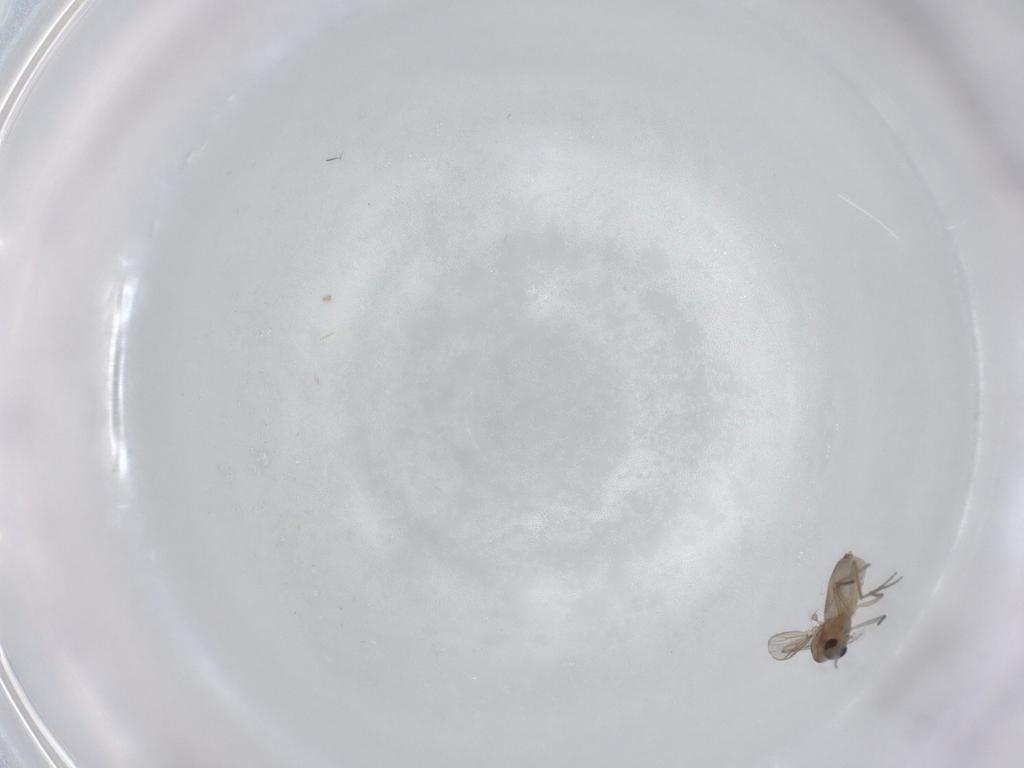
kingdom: Animalia
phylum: Arthropoda
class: Insecta
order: Diptera
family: Chironomidae
